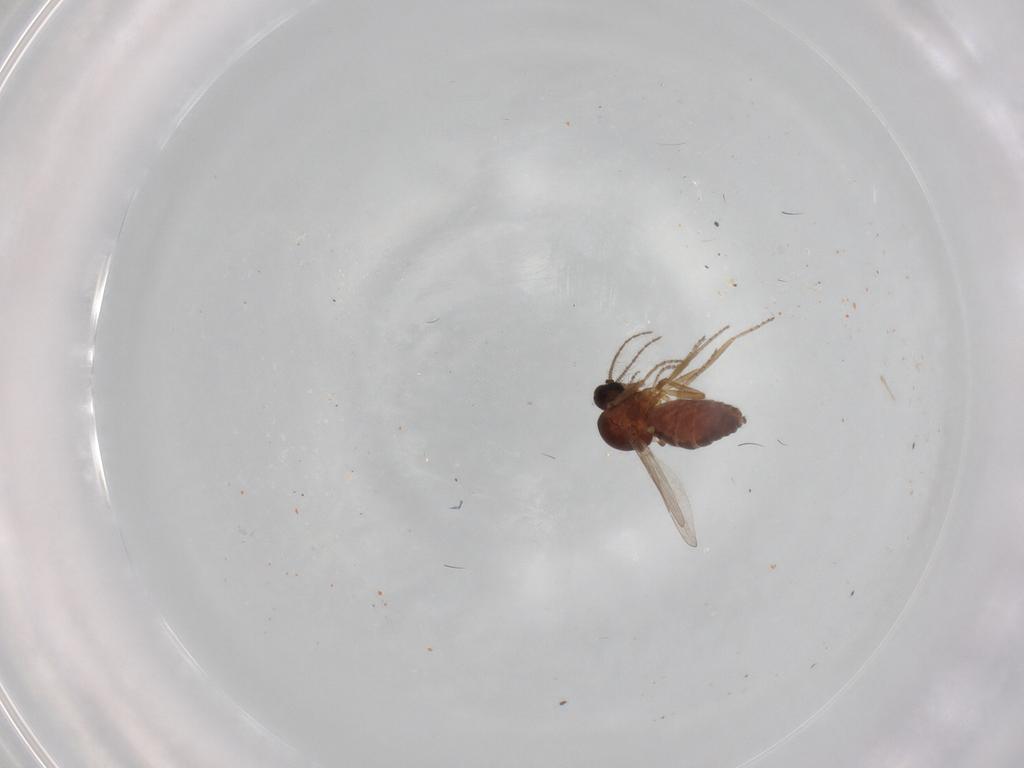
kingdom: Animalia
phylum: Arthropoda
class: Insecta
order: Diptera
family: Ceratopogonidae
